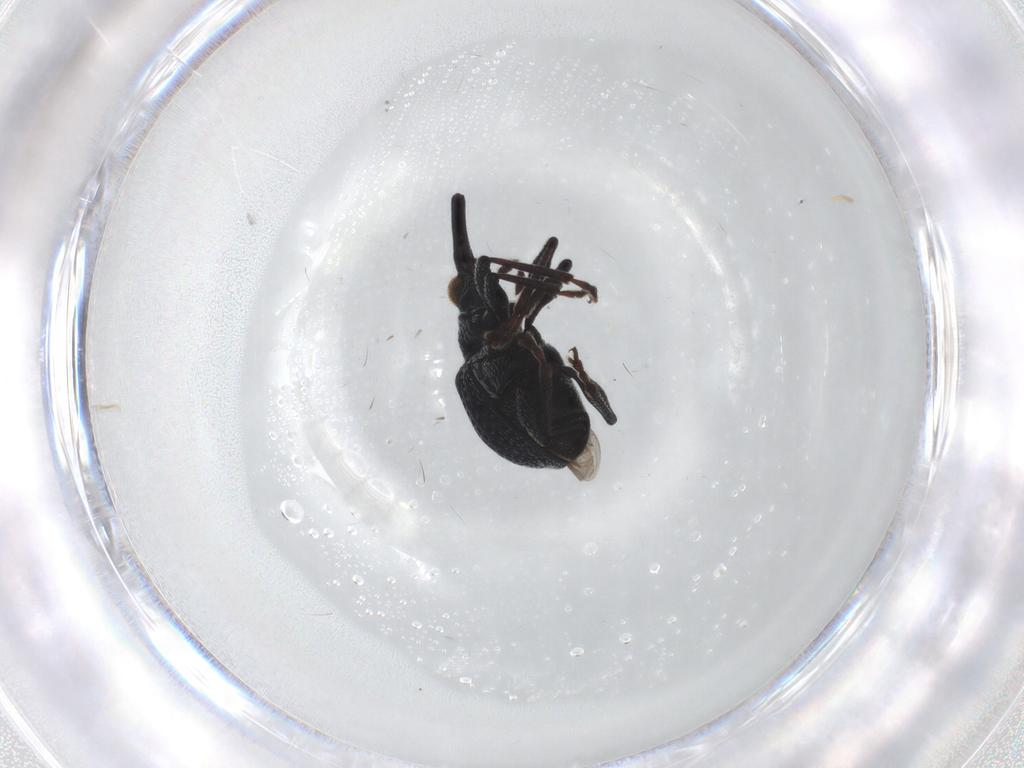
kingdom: Animalia
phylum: Arthropoda
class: Insecta
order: Coleoptera
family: Brentidae
